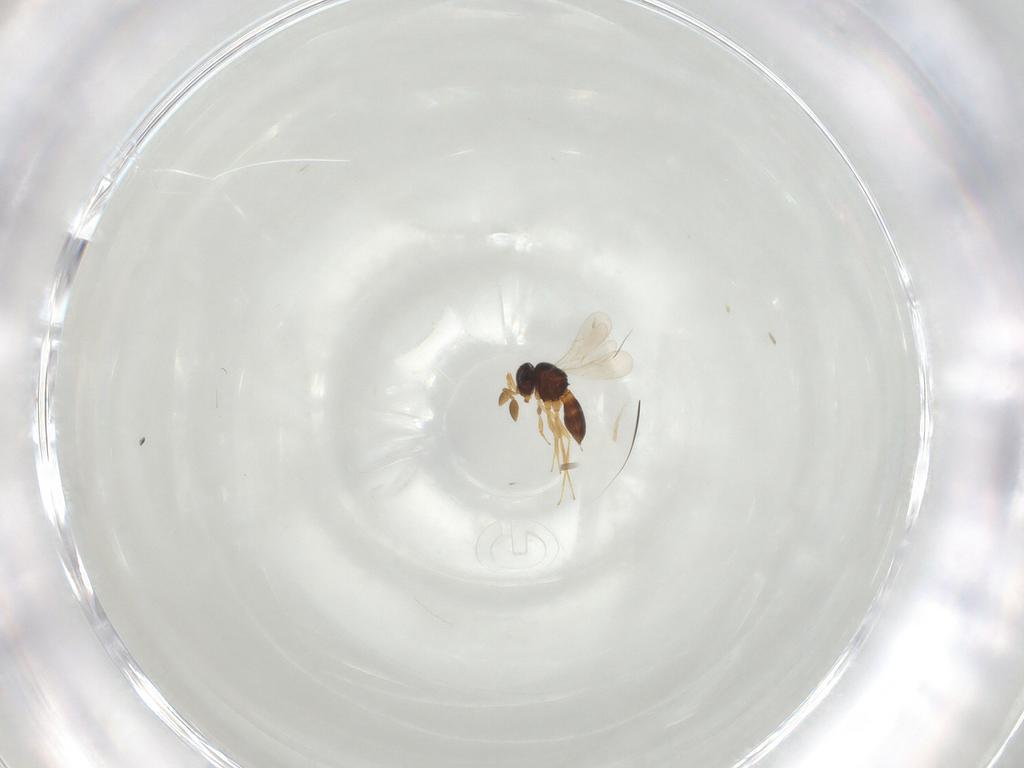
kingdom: Animalia
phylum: Arthropoda
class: Insecta
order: Hymenoptera
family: Scelionidae
